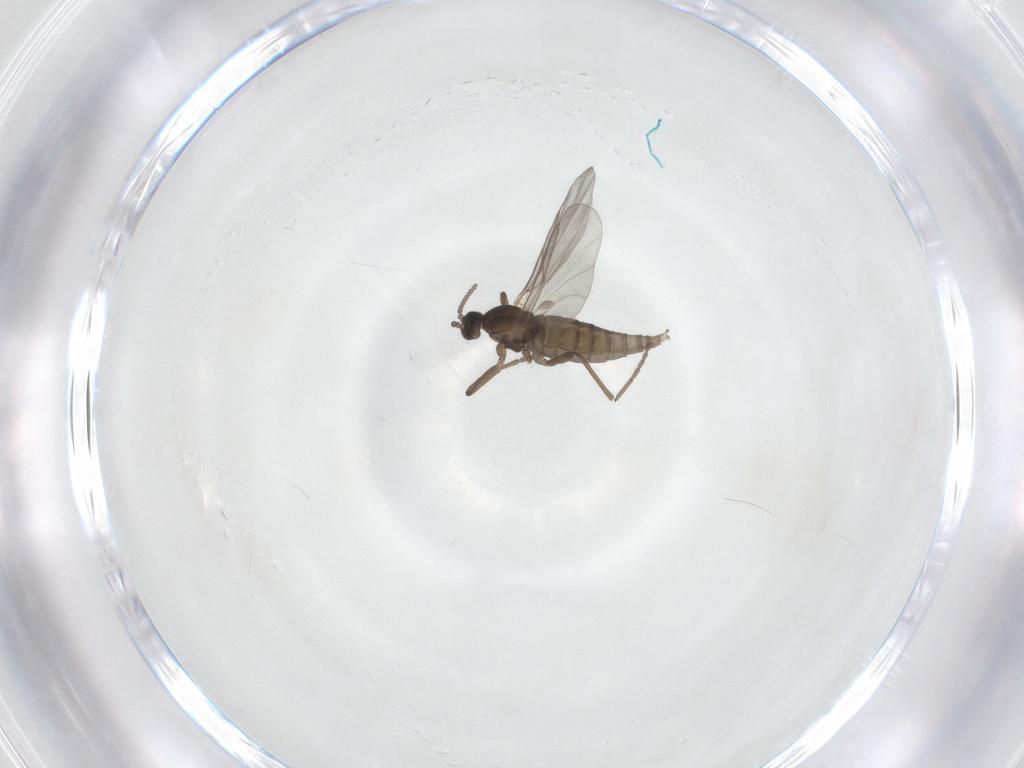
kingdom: Animalia
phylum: Arthropoda
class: Insecta
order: Diptera
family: Cecidomyiidae
